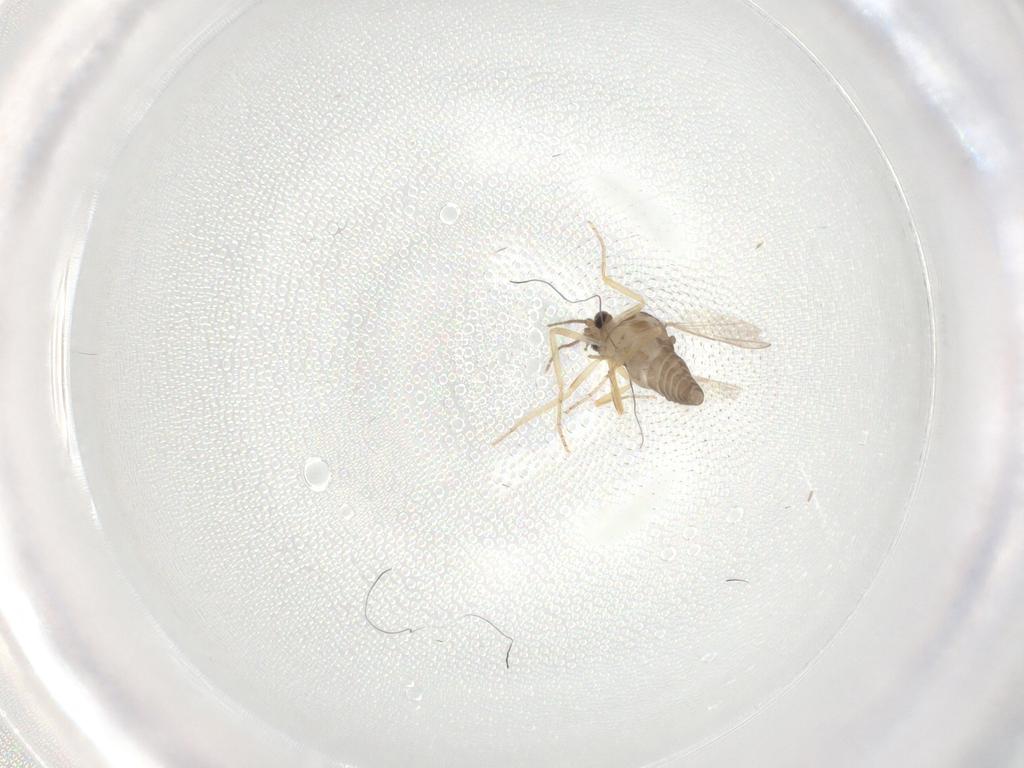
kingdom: Animalia
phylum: Arthropoda
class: Insecta
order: Diptera
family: Ceratopogonidae
